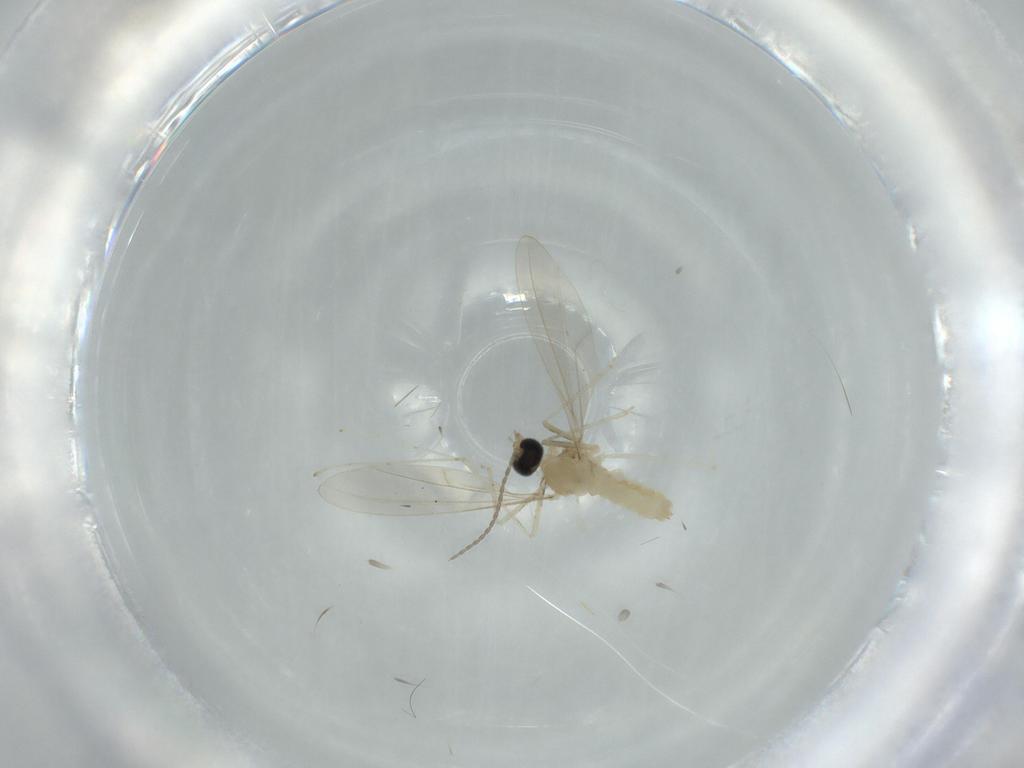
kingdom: Animalia
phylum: Arthropoda
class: Insecta
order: Diptera
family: Cecidomyiidae
